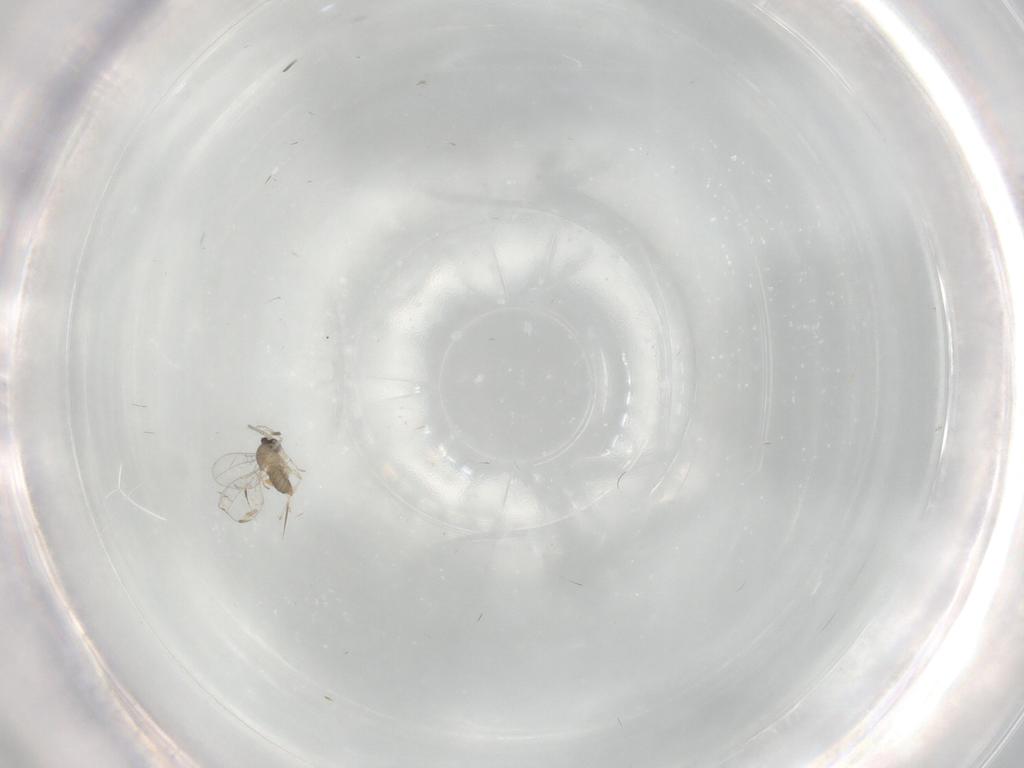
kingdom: Animalia
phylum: Arthropoda
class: Insecta
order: Diptera
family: Cecidomyiidae
